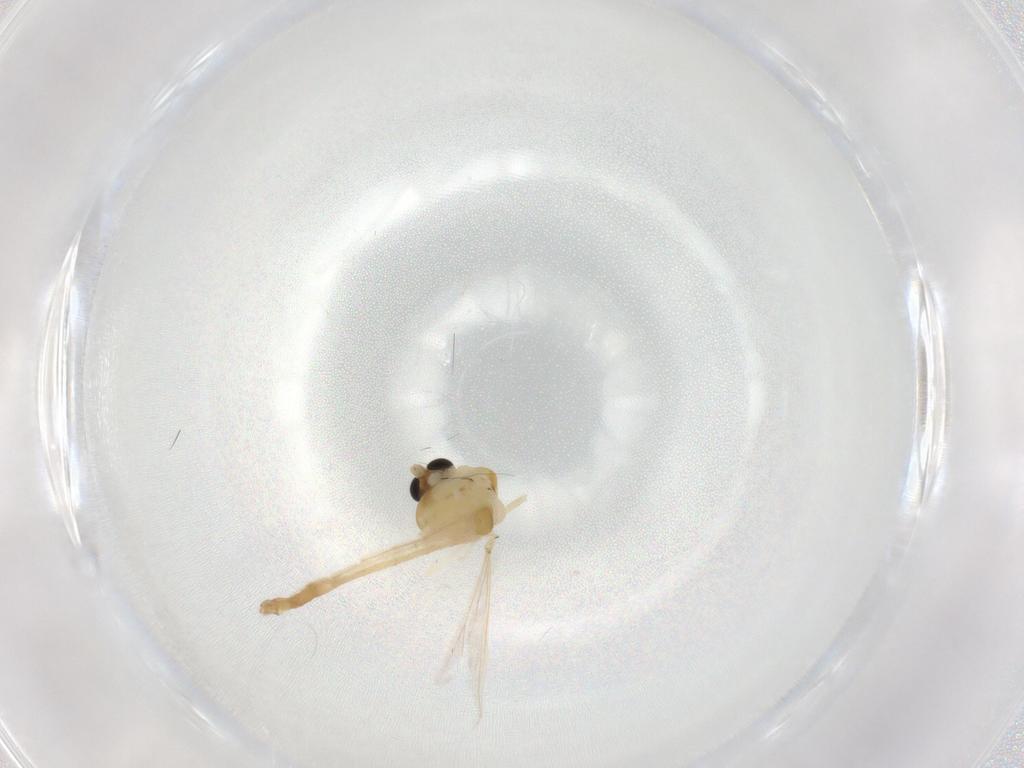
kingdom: Animalia
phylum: Arthropoda
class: Insecta
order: Diptera
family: Chironomidae
